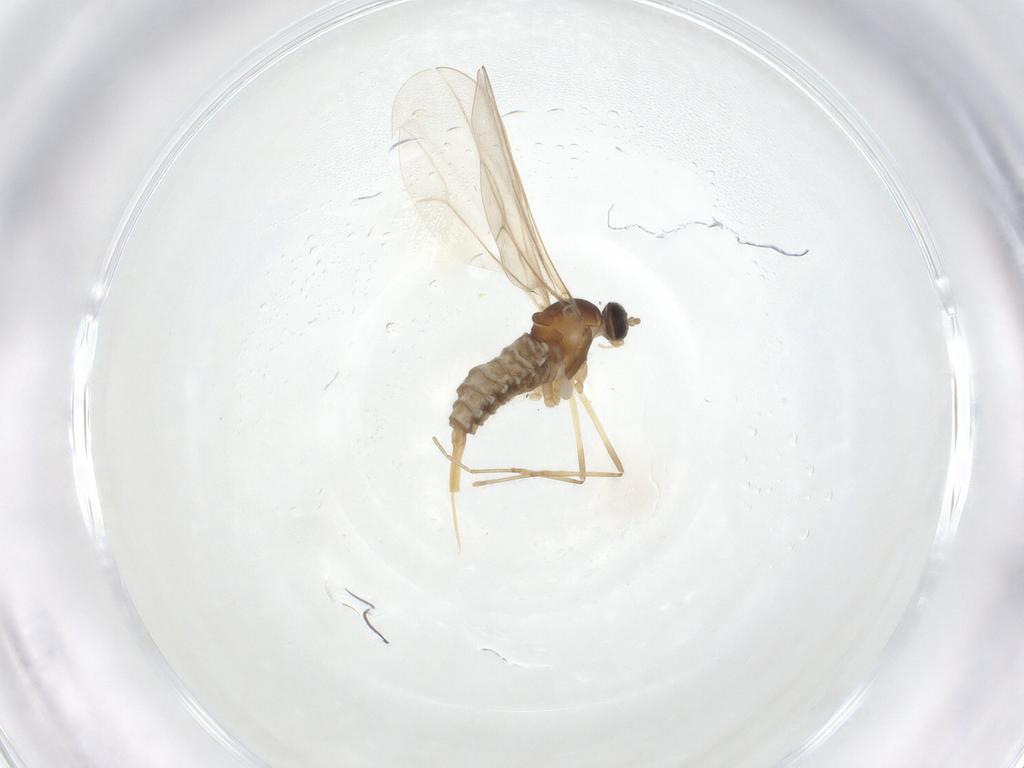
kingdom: Animalia
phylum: Arthropoda
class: Insecta
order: Diptera
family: Cecidomyiidae
